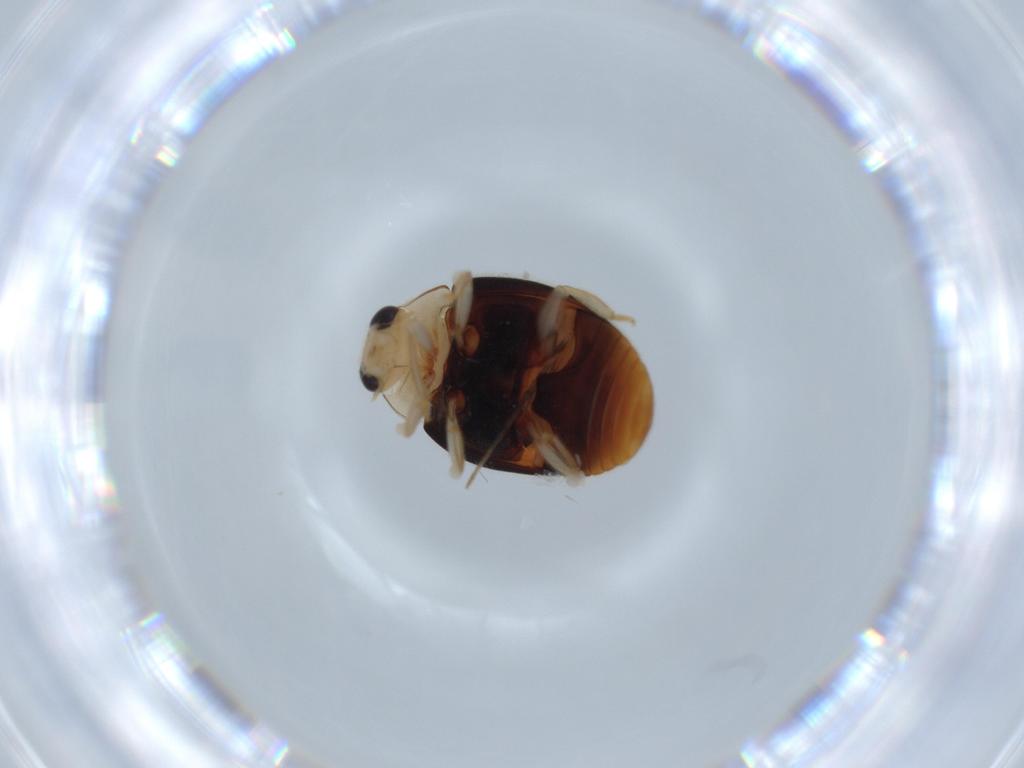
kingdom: Animalia
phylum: Arthropoda
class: Insecta
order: Coleoptera
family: Coccinellidae
